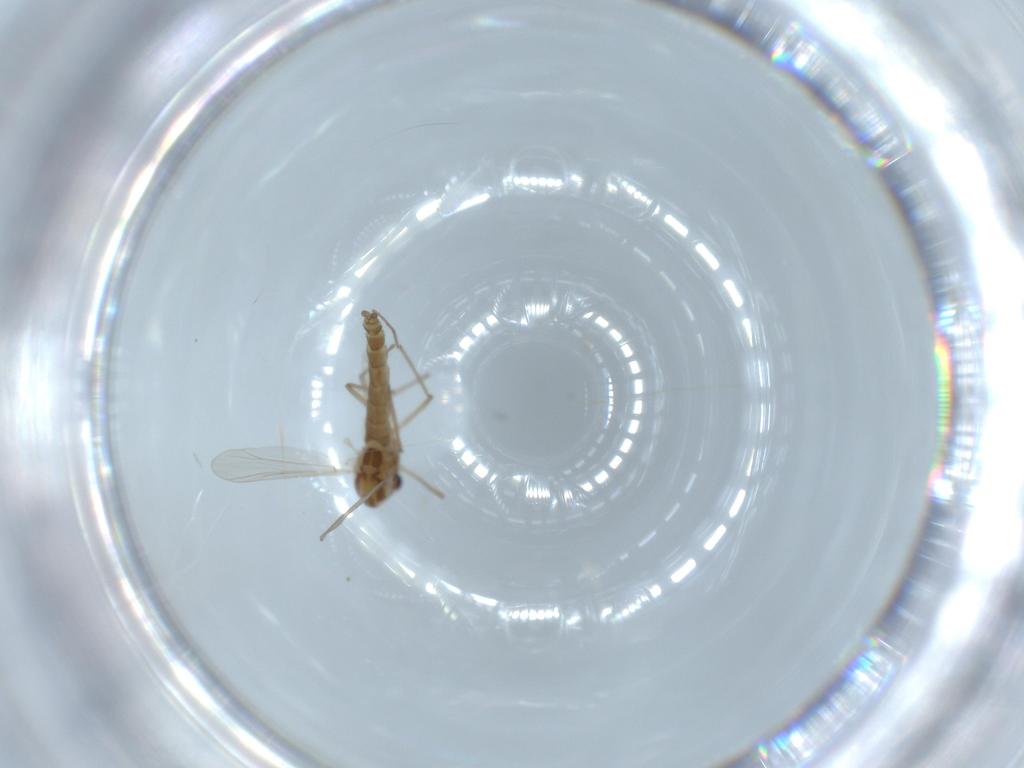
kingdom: Animalia
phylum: Arthropoda
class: Insecta
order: Diptera
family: Chironomidae
